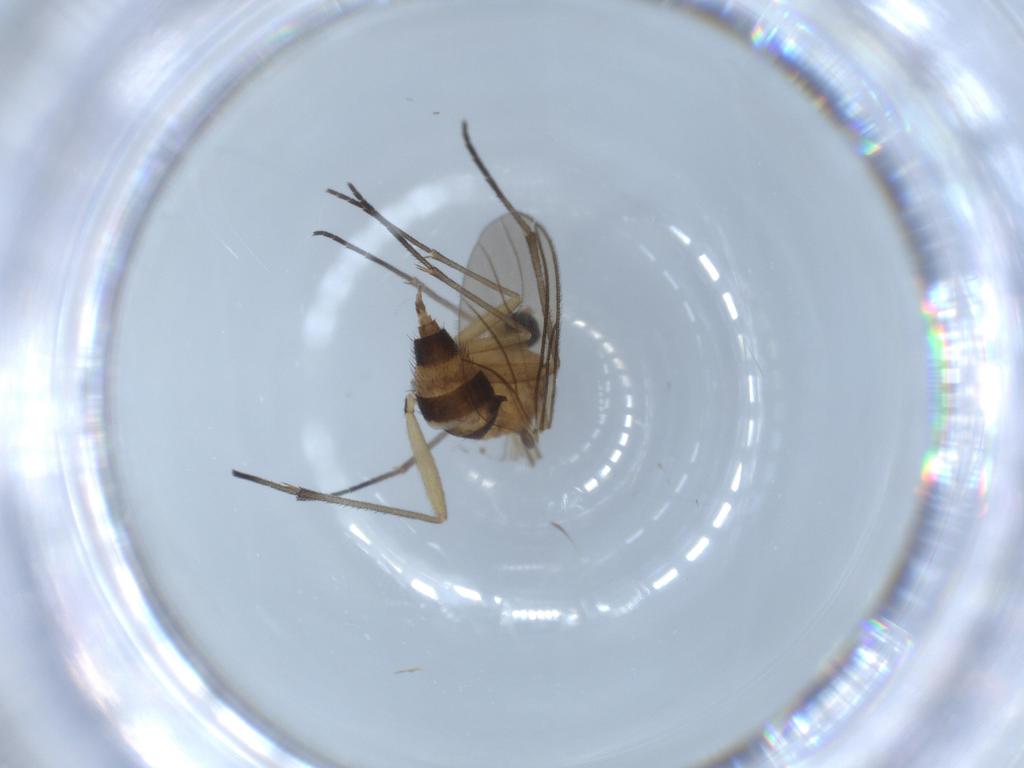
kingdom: Animalia
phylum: Arthropoda
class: Insecta
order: Diptera
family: Sciaridae
